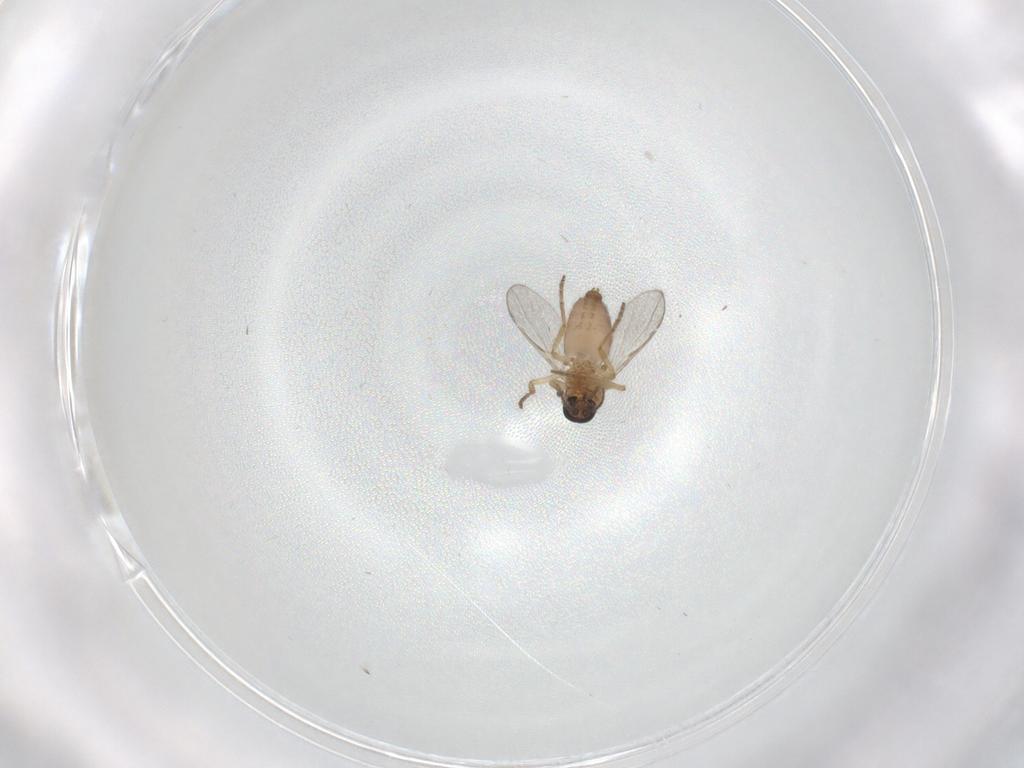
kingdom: Animalia
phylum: Arthropoda
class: Insecta
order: Diptera
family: Ceratopogonidae
